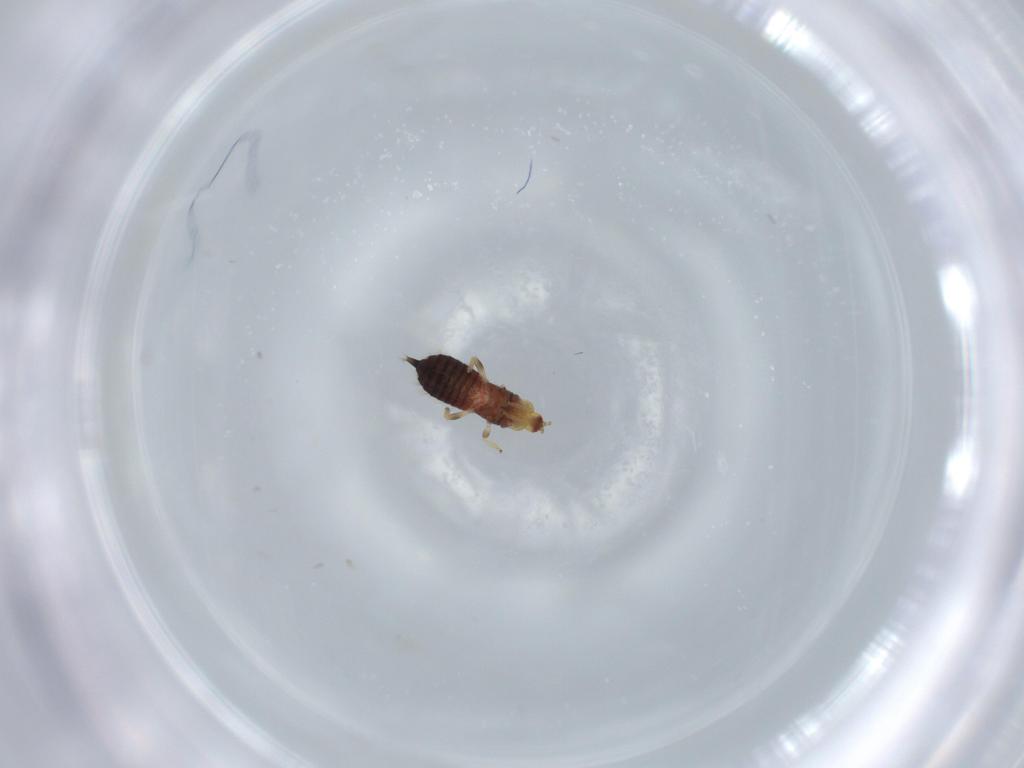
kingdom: Animalia
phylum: Arthropoda
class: Insecta
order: Thysanoptera
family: Phlaeothripidae
